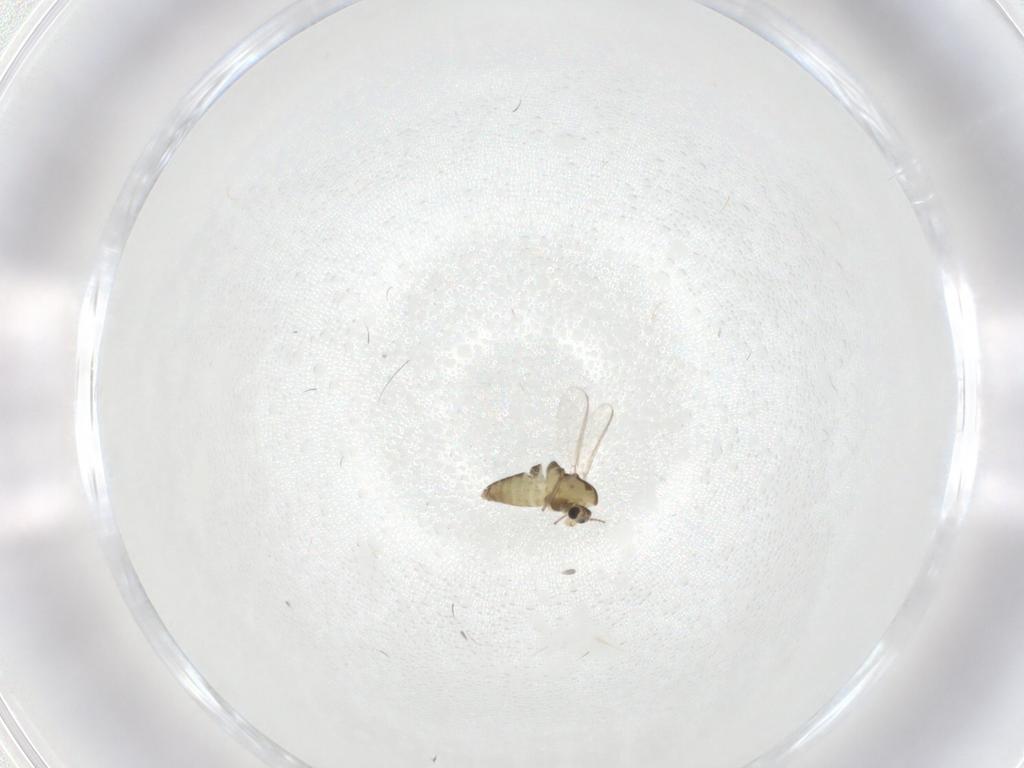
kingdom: Animalia
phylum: Arthropoda
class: Insecta
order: Diptera
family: Chironomidae
